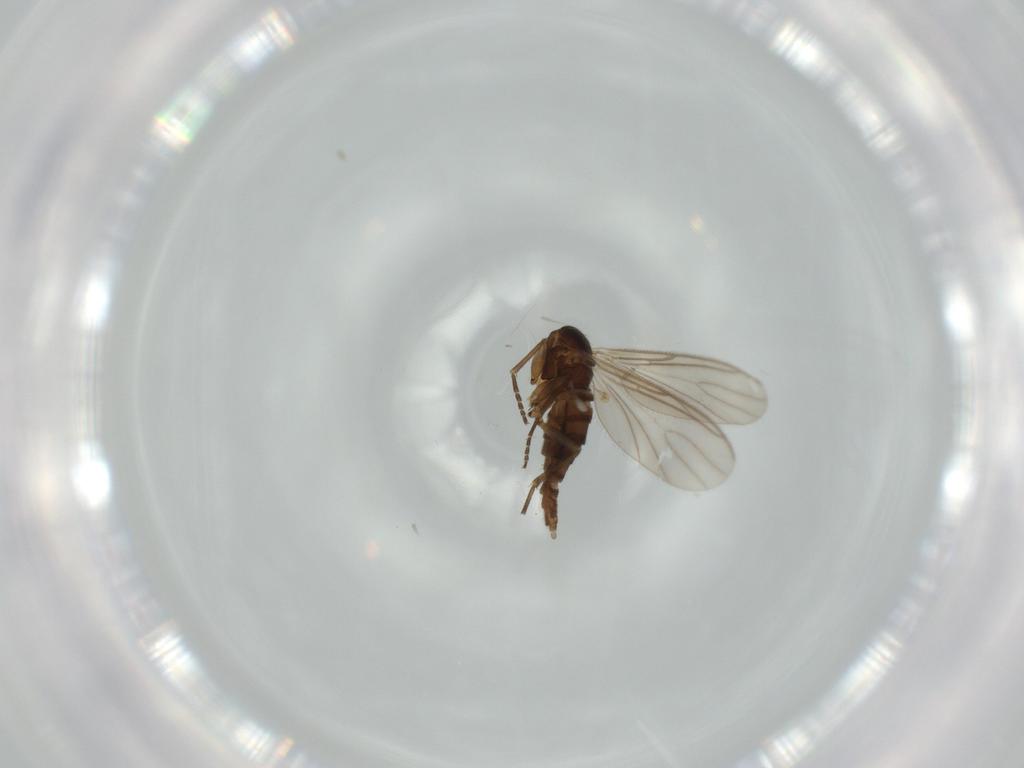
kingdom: Animalia
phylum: Arthropoda
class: Insecta
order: Diptera
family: Sciaridae
